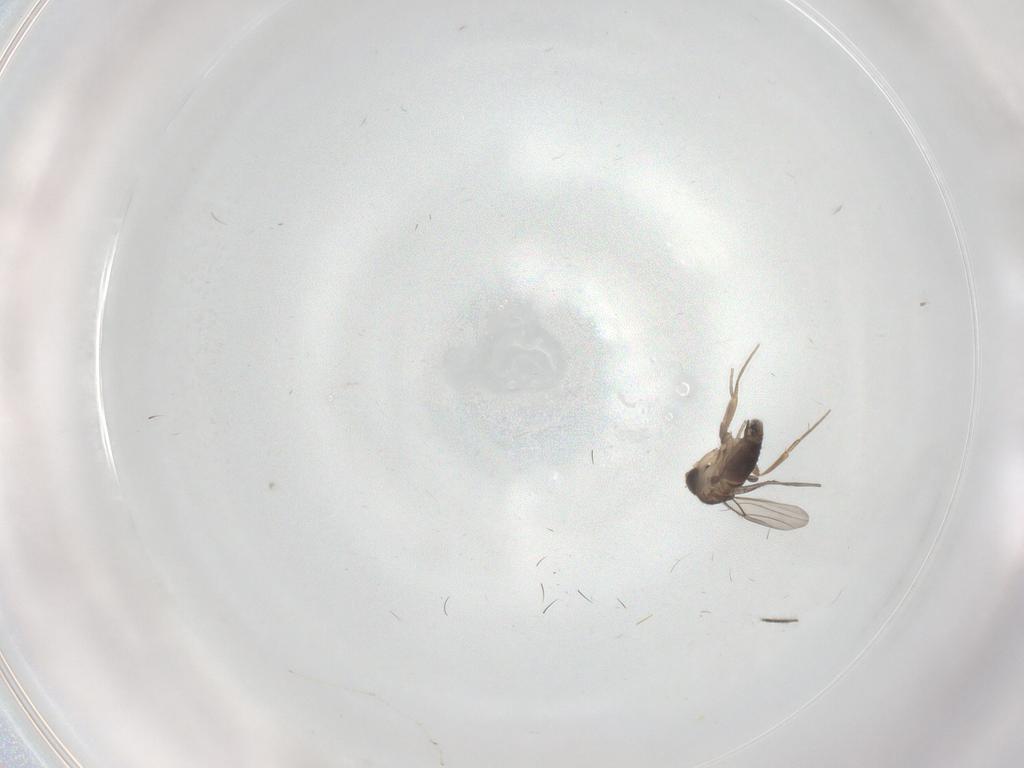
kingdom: Animalia
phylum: Arthropoda
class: Insecta
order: Diptera
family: Phoridae
